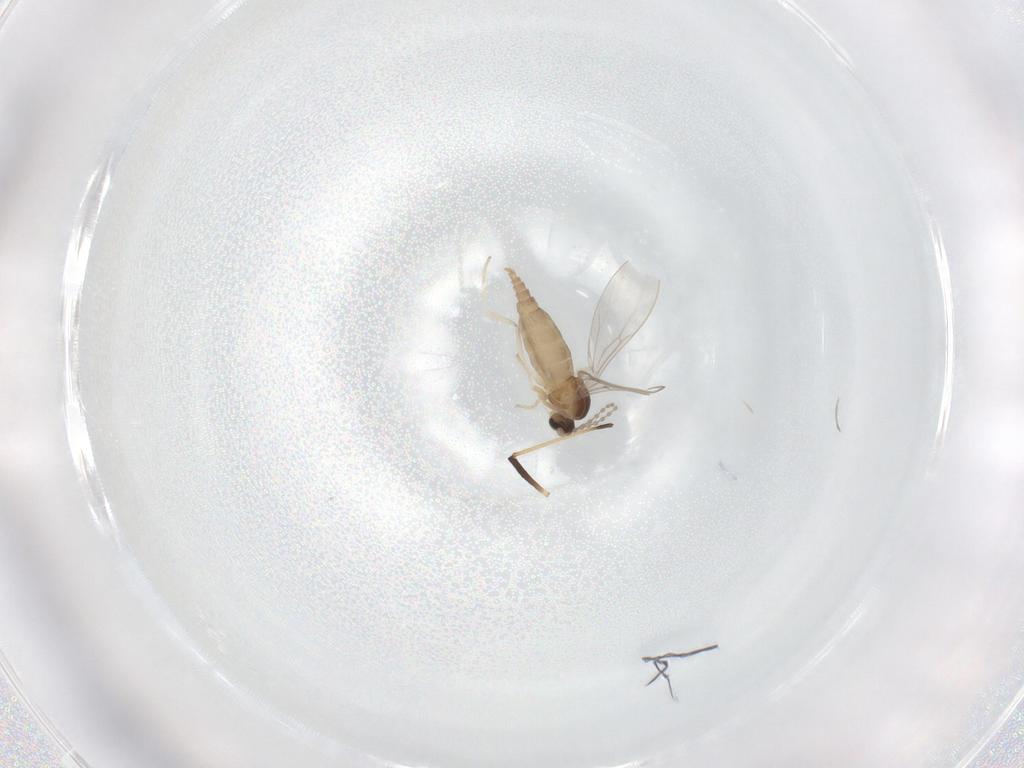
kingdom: Animalia
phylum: Arthropoda
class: Insecta
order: Diptera
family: Cecidomyiidae
